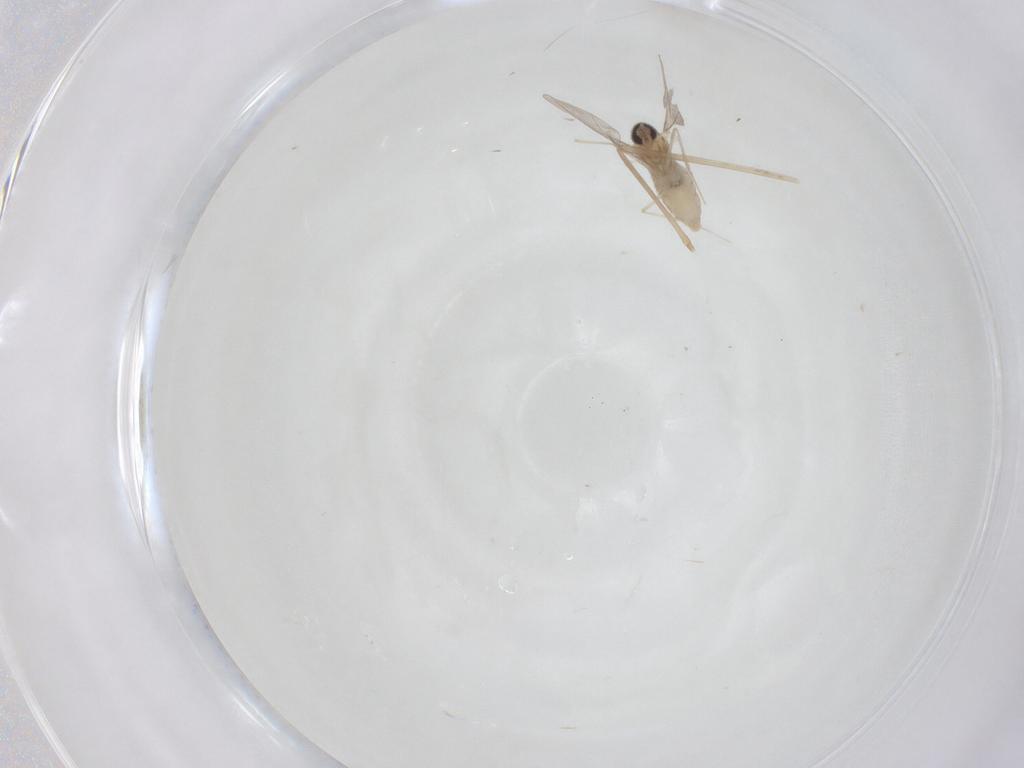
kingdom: Animalia
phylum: Arthropoda
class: Insecta
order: Diptera
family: Cecidomyiidae
